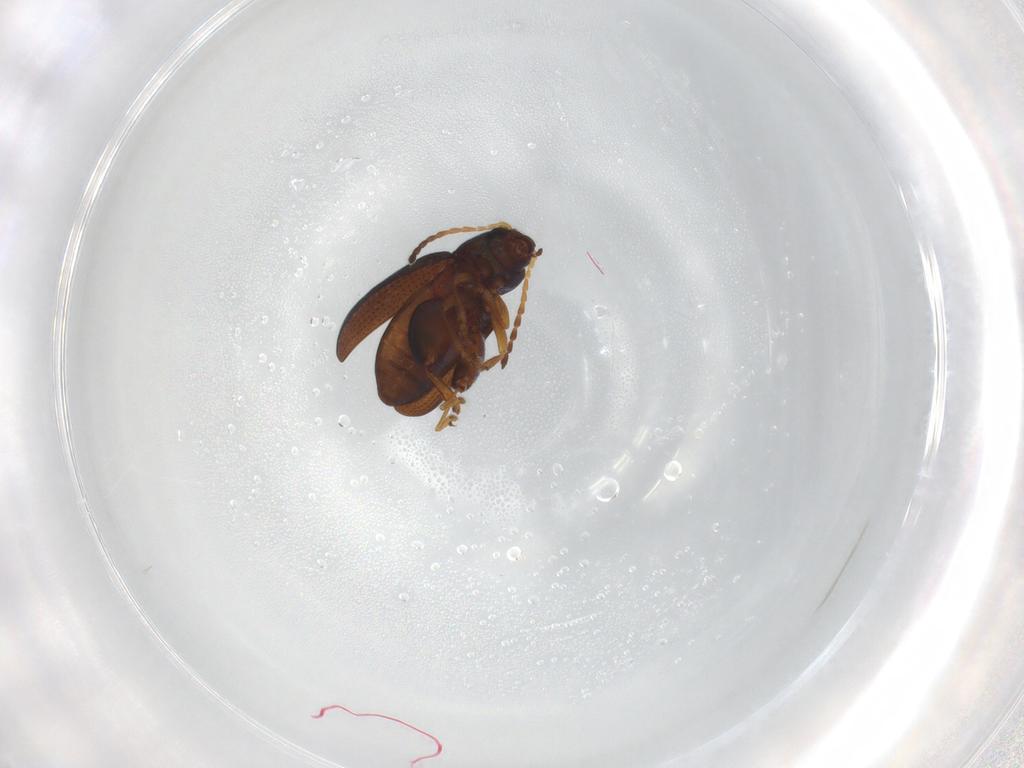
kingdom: Animalia
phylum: Arthropoda
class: Insecta
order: Coleoptera
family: Chrysomelidae
